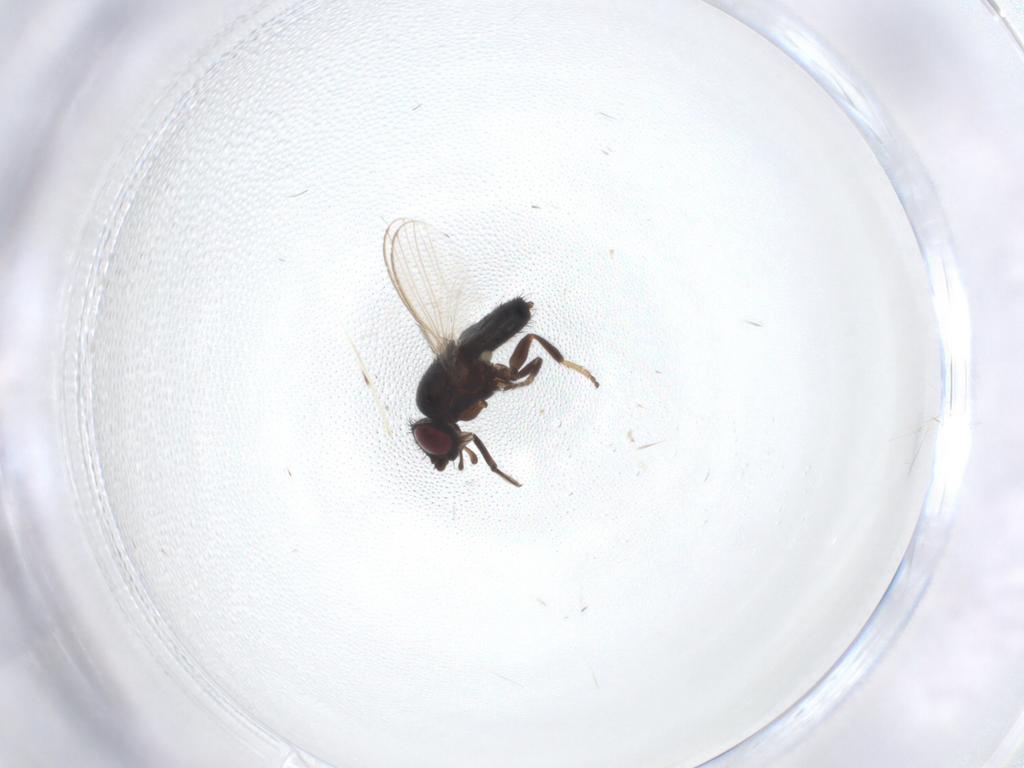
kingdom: Animalia
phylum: Arthropoda
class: Insecta
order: Diptera
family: Milichiidae
